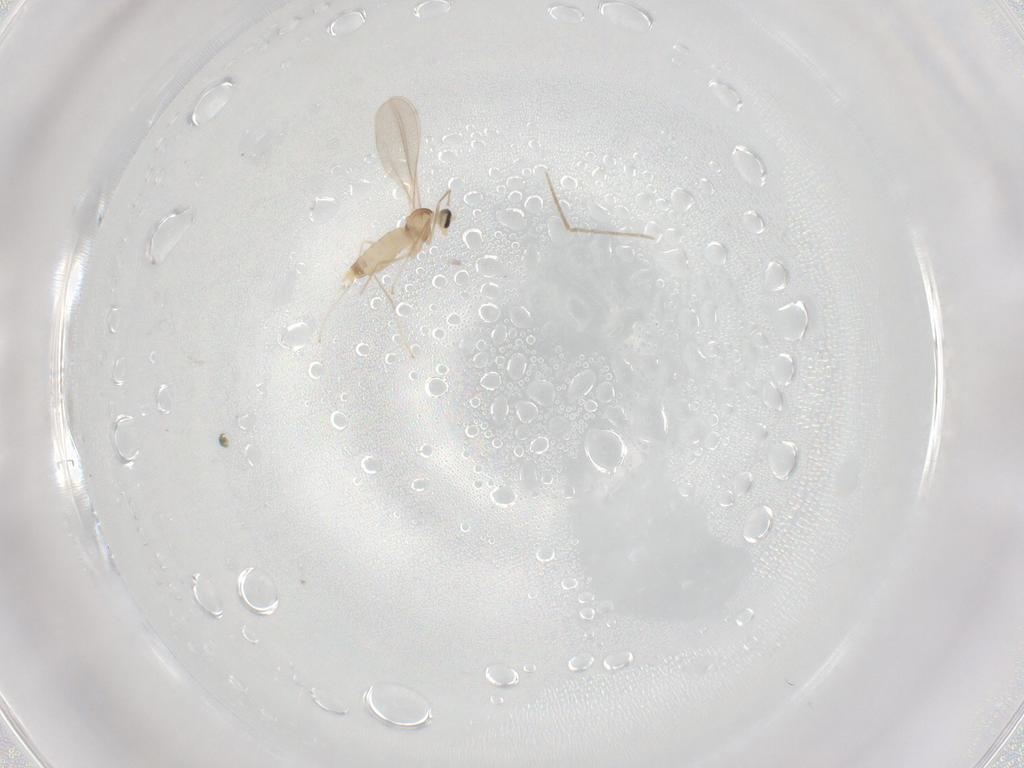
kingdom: Animalia
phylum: Arthropoda
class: Insecta
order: Diptera
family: Cecidomyiidae
